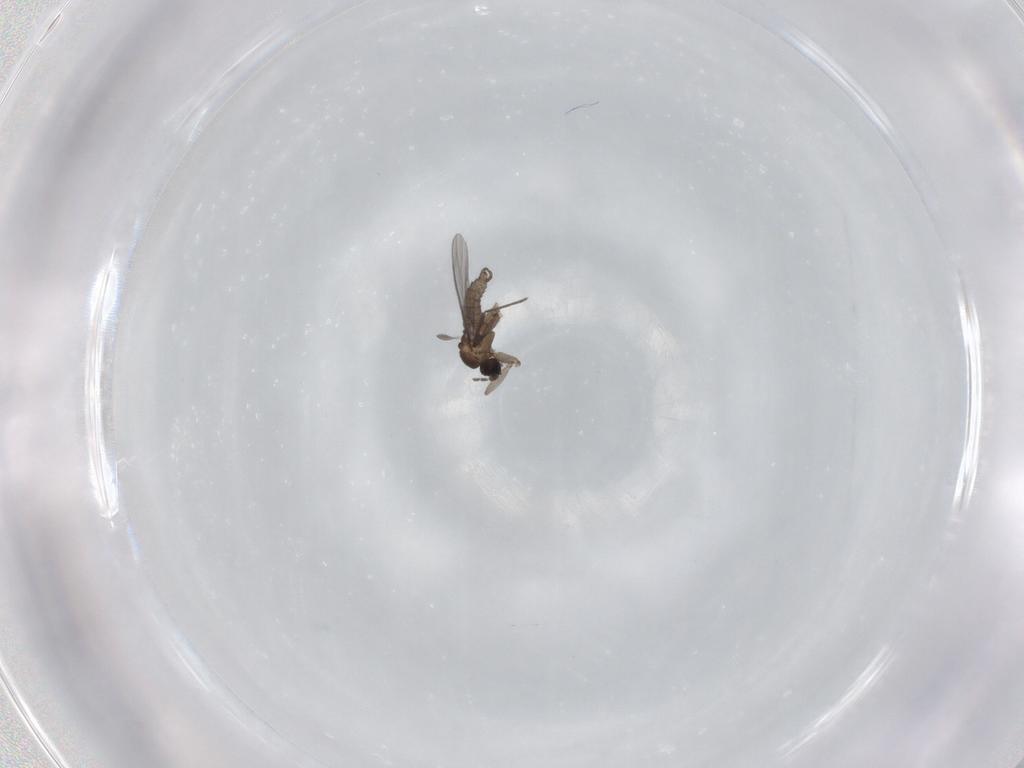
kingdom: Animalia
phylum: Arthropoda
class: Insecta
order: Diptera
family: Sciaridae
